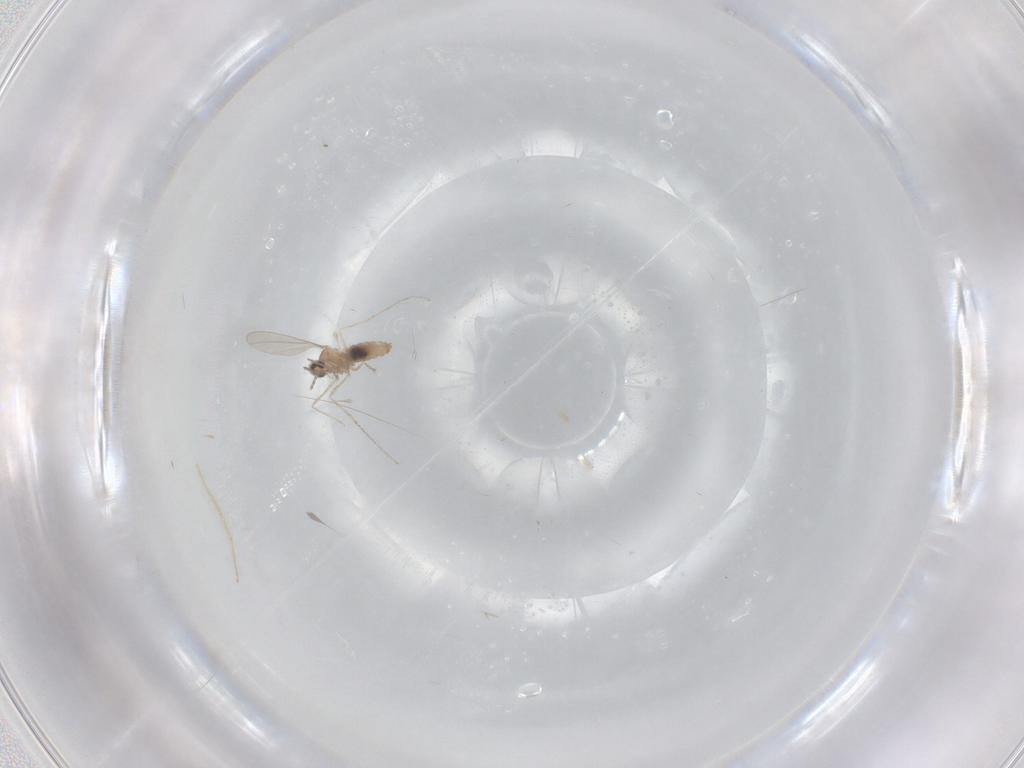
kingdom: Animalia
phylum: Arthropoda
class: Insecta
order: Diptera
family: Cecidomyiidae
